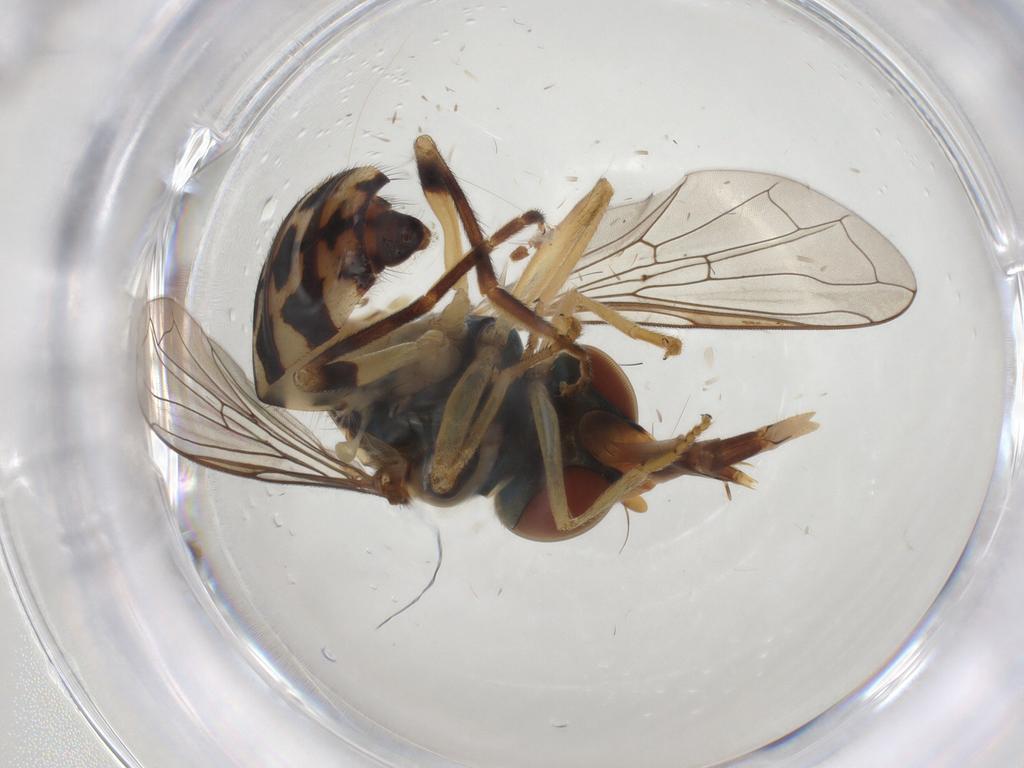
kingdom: Animalia
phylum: Arthropoda
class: Insecta
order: Diptera
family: Syrphidae
